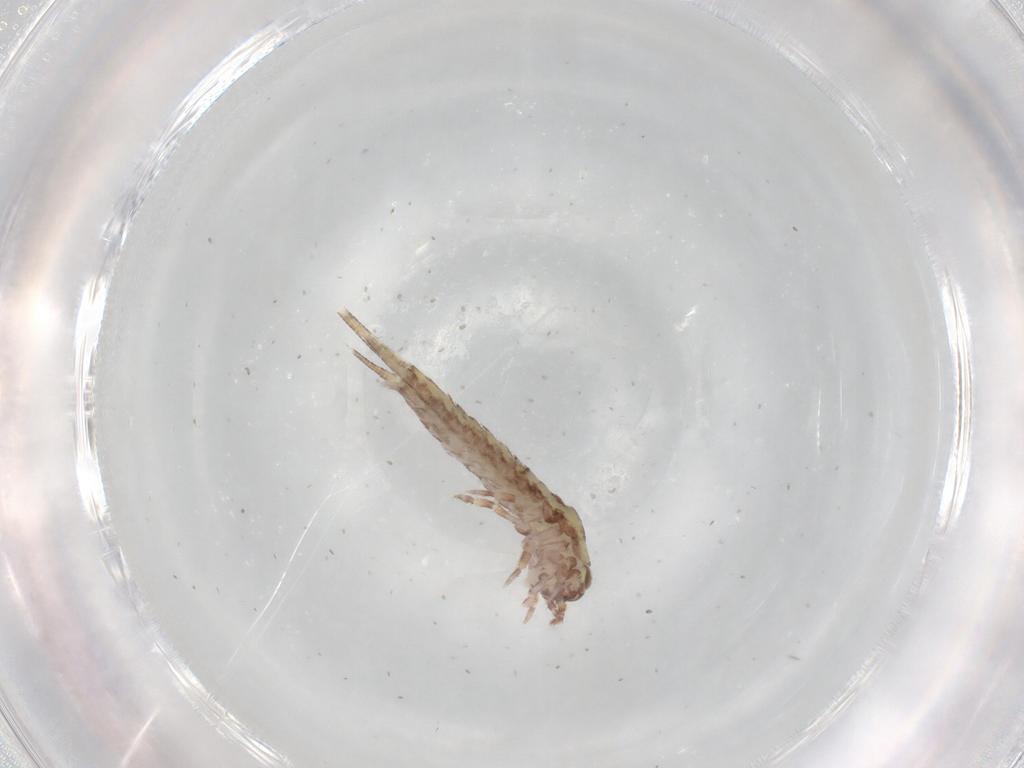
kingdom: Animalia
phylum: Arthropoda
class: Insecta
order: Archaeognatha
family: Machilidae
